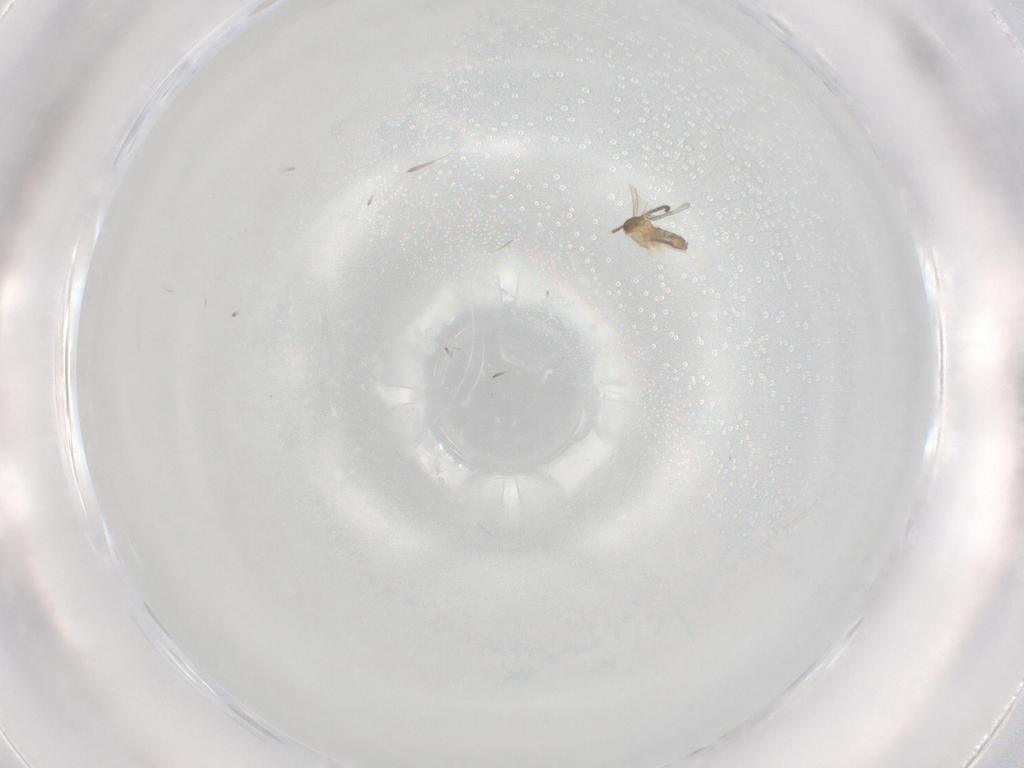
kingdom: Animalia
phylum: Arthropoda
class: Insecta
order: Diptera
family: Cecidomyiidae
